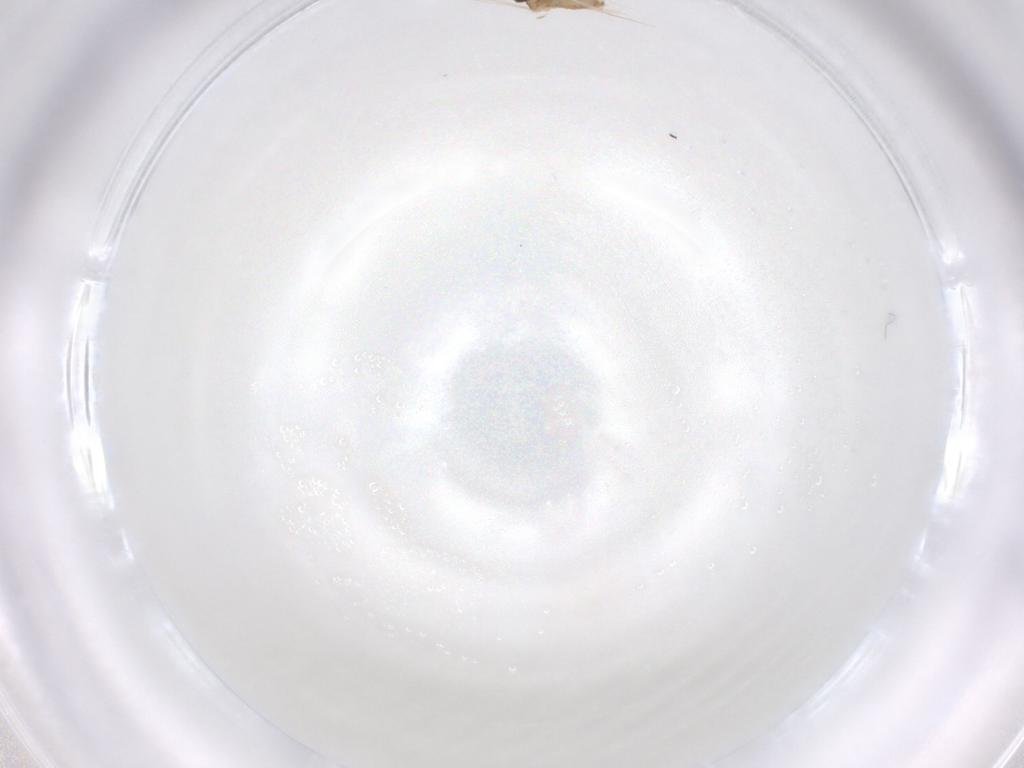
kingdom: Animalia
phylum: Arthropoda
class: Insecta
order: Diptera
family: Cecidomyiidae
